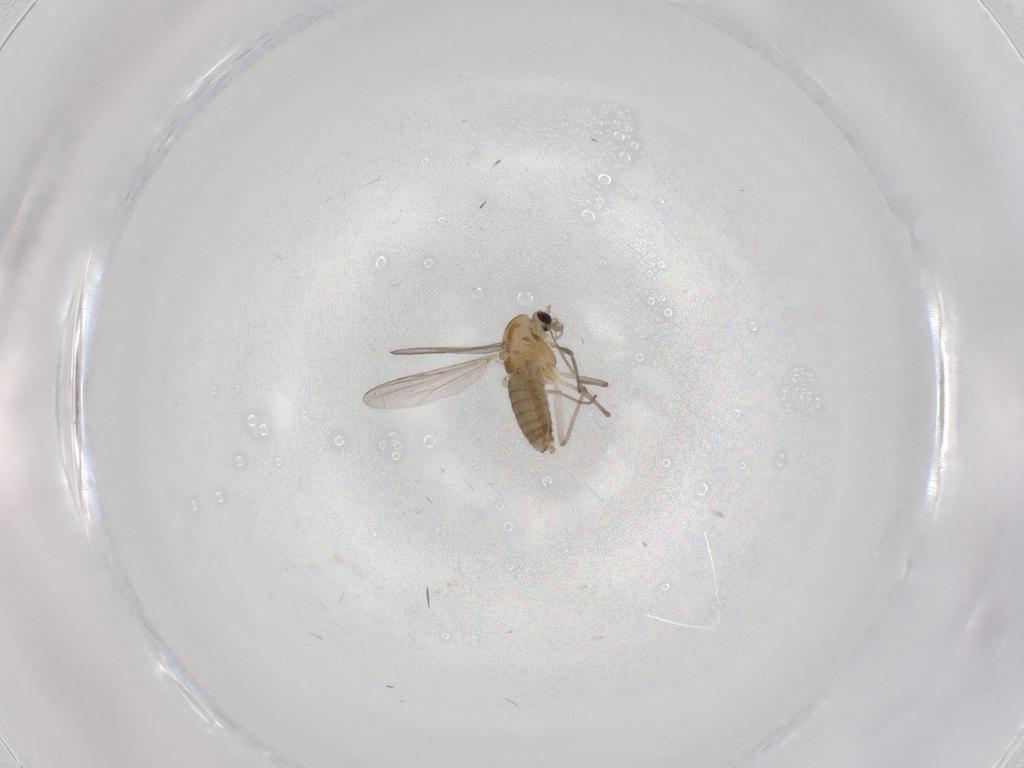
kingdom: Animalia
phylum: Arthropoda
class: Insecta
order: Diptera
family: Chironomidae
